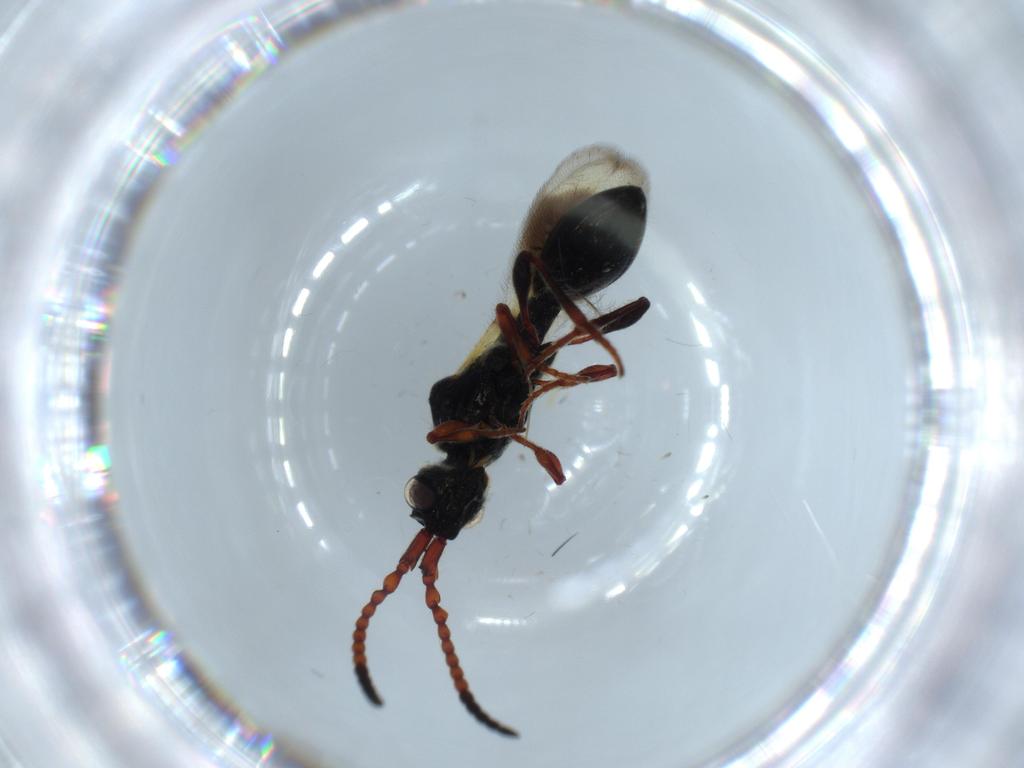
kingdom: Animalia
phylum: Arthropoda
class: Insecta
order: Hymenoptera
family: Diapriidae
